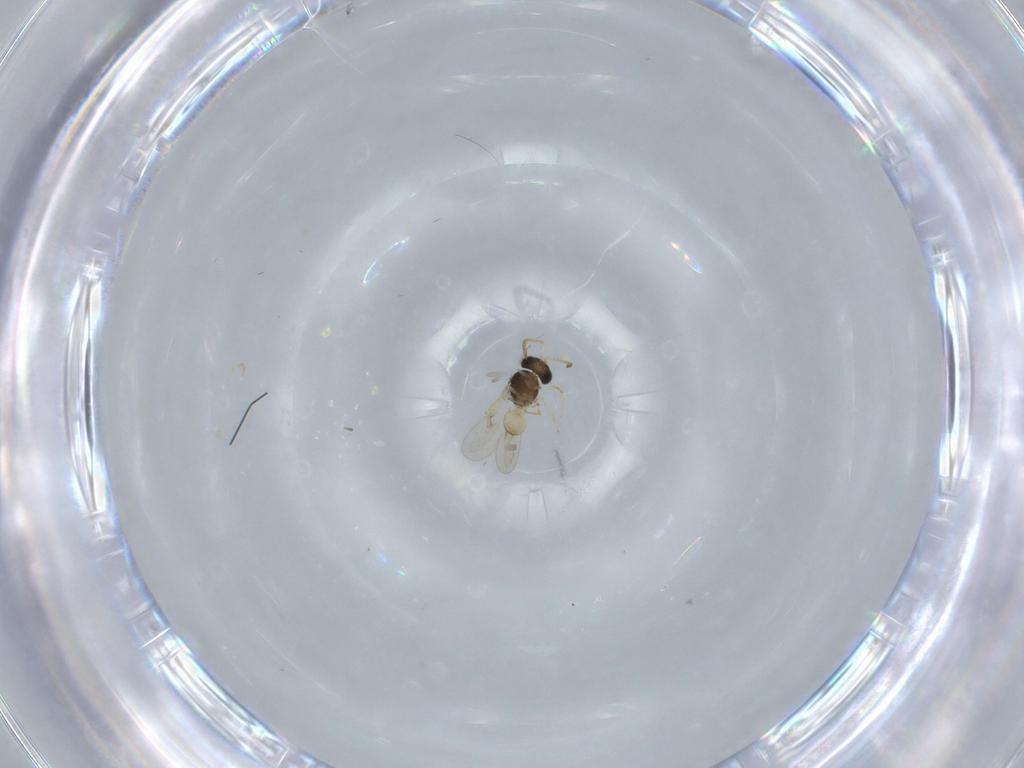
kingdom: Animalia
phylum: Arthropoda
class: Insecta
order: Hymenoptera
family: Scelionidae
